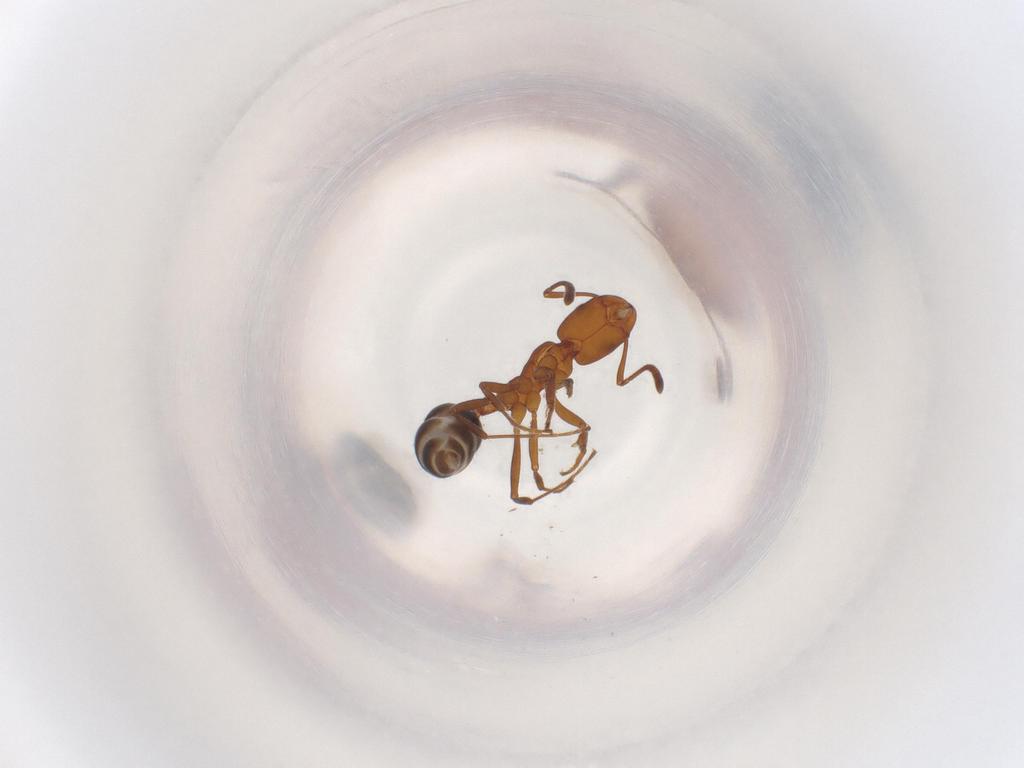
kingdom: Animalia
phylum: Arthropoda
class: Insecta
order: Hymenoptera
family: Formicidae
